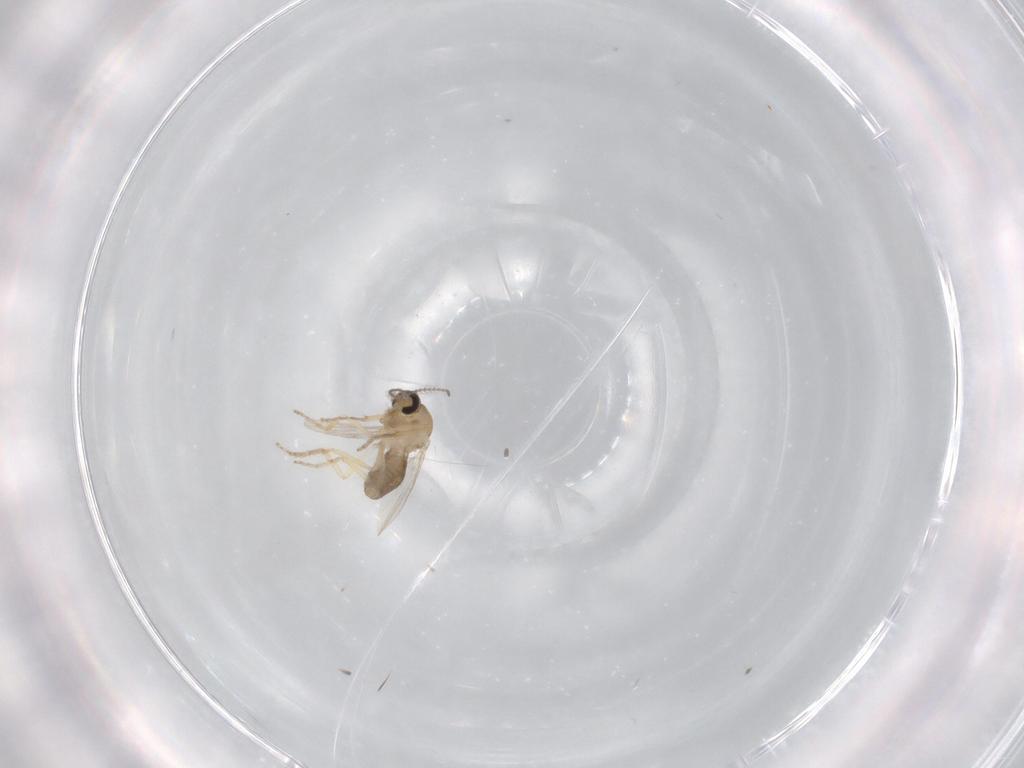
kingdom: Animalia
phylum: Arthropoda
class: Insecta
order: Diptera
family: Ceratopogonidae
